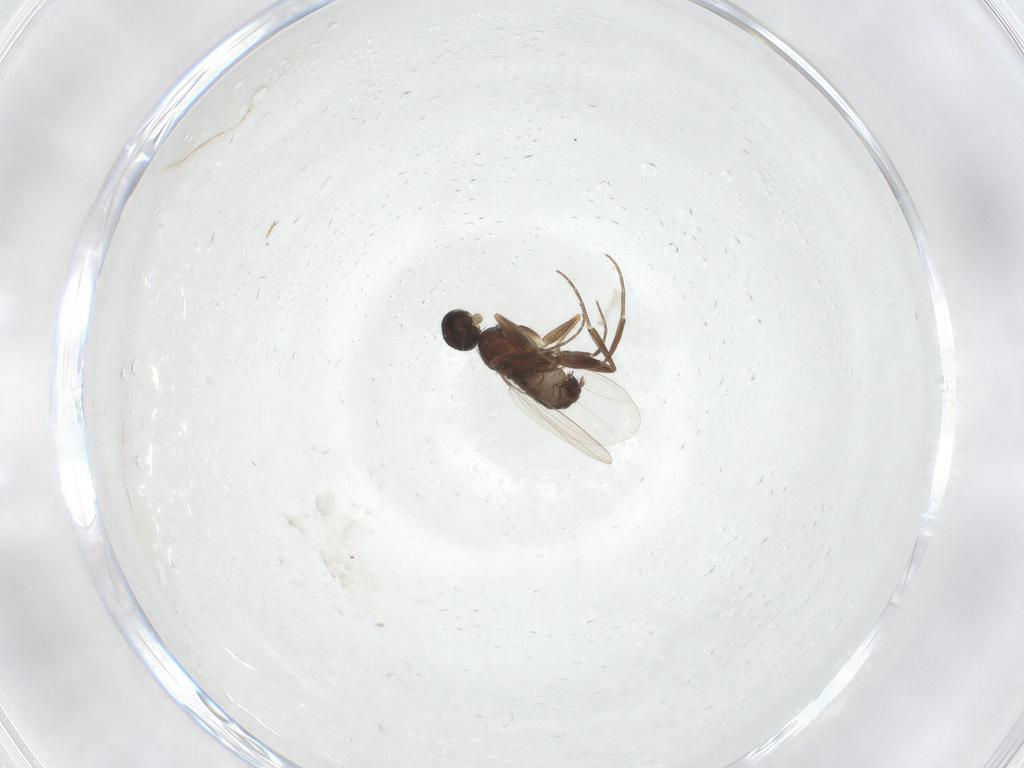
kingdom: Animalia
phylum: Arthropoda
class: Insecta
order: Diptera
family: Phoridae
